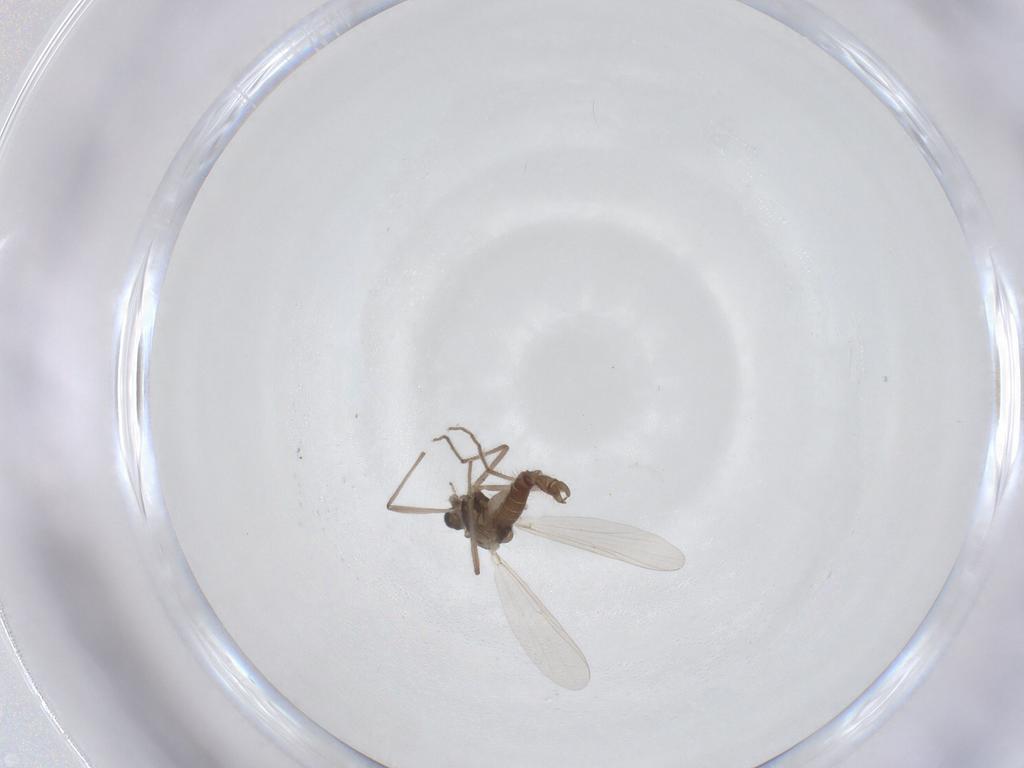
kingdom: Animalia
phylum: Arthropoda
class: Insecta
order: Diptera
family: Chironomidae
